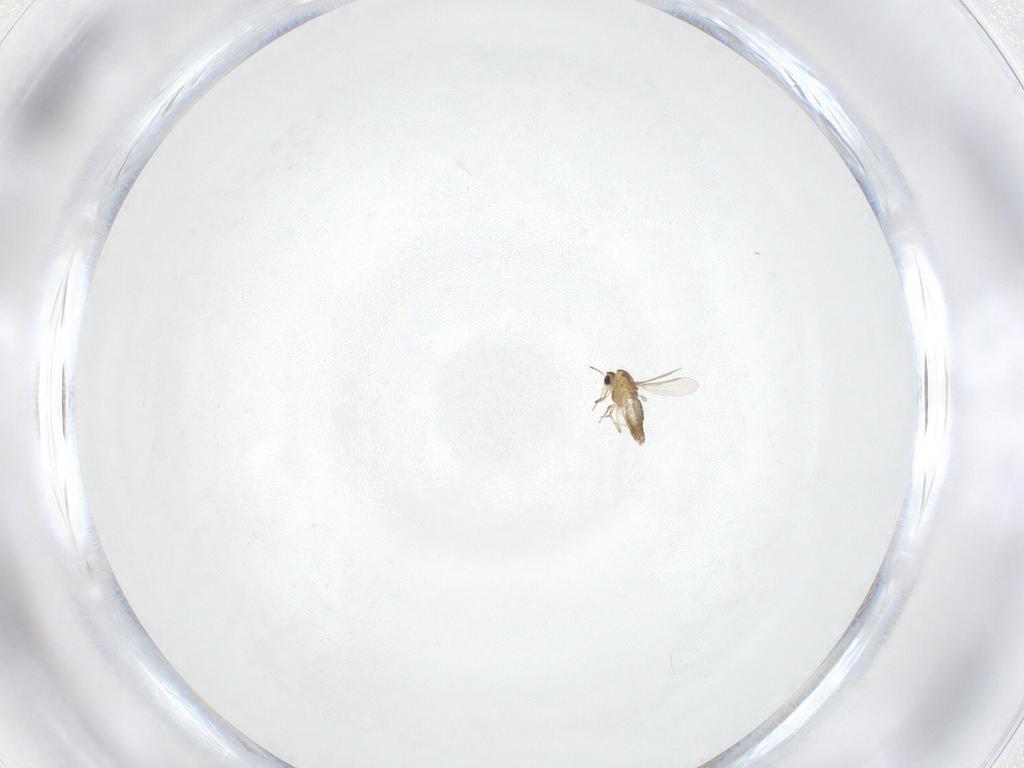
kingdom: Animalia
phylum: Arthropoda
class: Insecta
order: Diptera
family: Chironomidae
